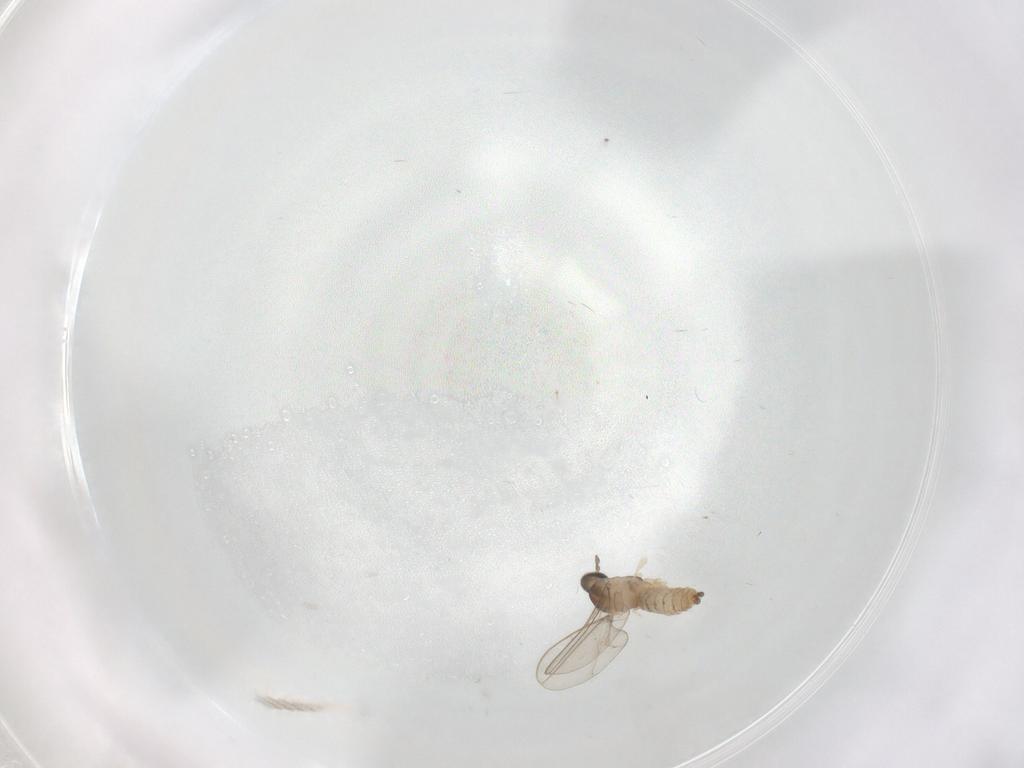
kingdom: Animalia
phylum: Arthropoda
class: Insecta
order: Diptera
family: Cecidomyiidae
